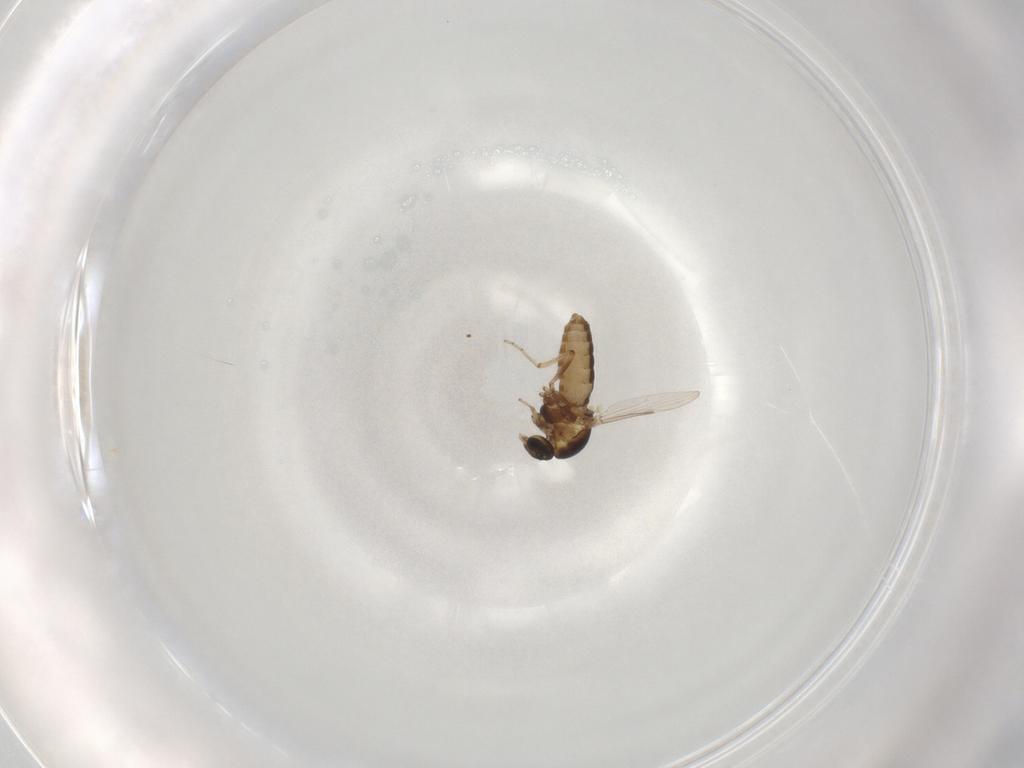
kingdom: Animalia
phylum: Arthropoda
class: Insecta
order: Diptera
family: Ceratopogonidae
